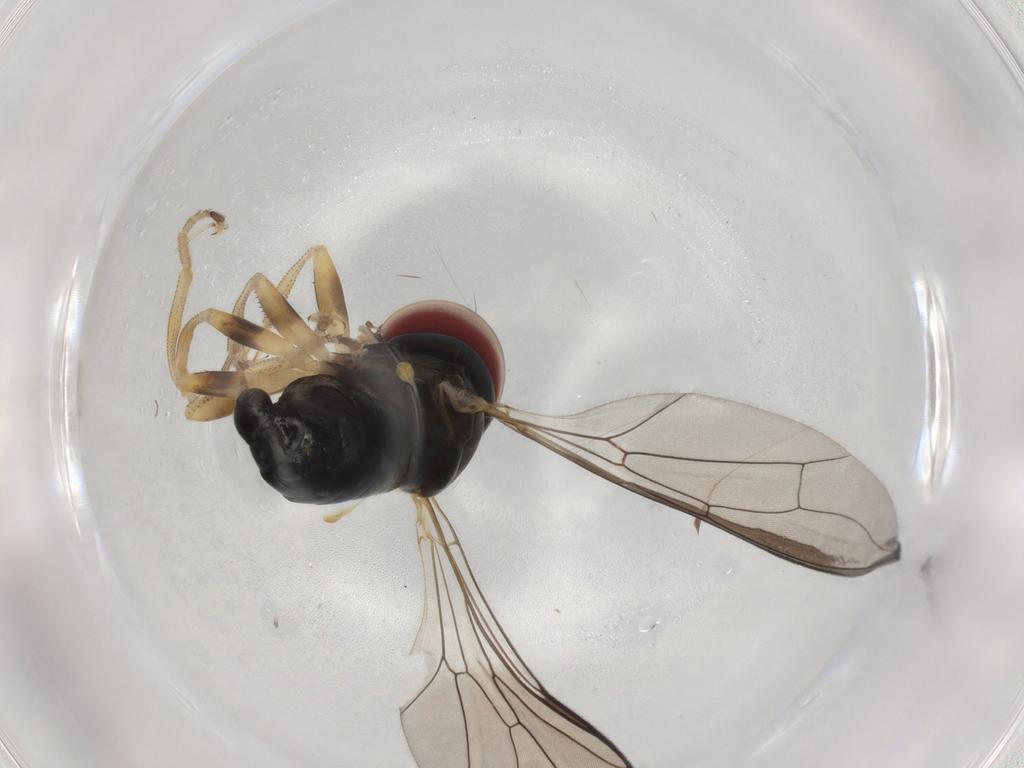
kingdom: Animalia
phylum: Arthropoda
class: Insecta
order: Diptera
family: Pipunculidae
